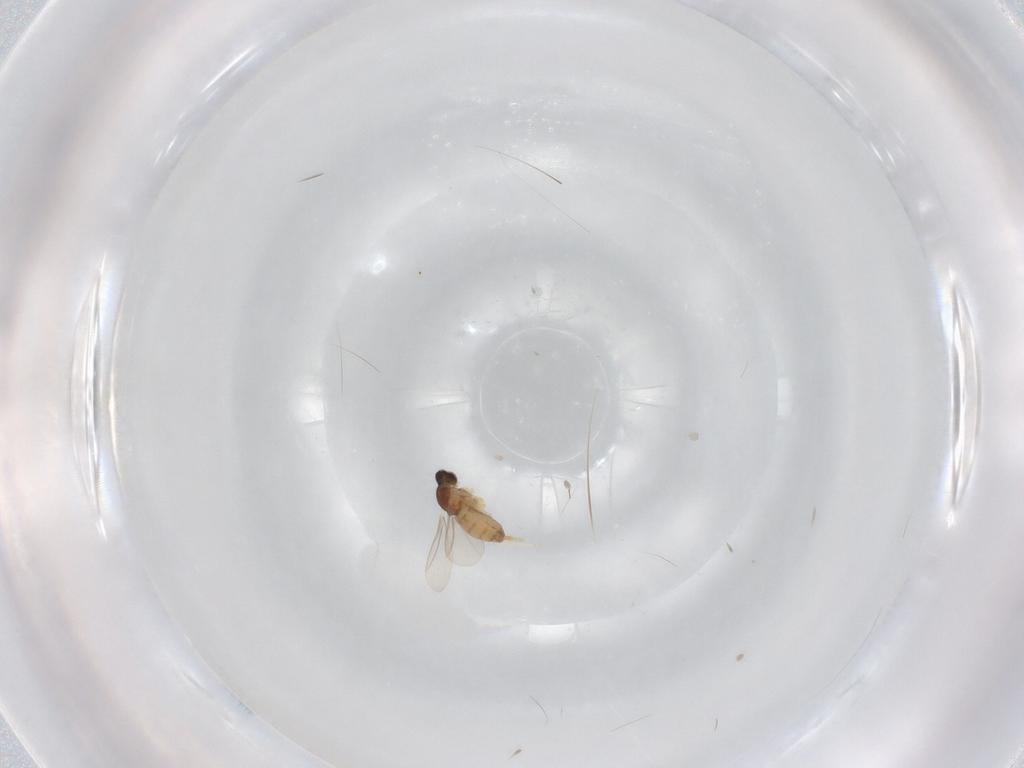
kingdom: Animalia
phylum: Arthropoda
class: Insecta
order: Diptera
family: Cecidomyiidae
